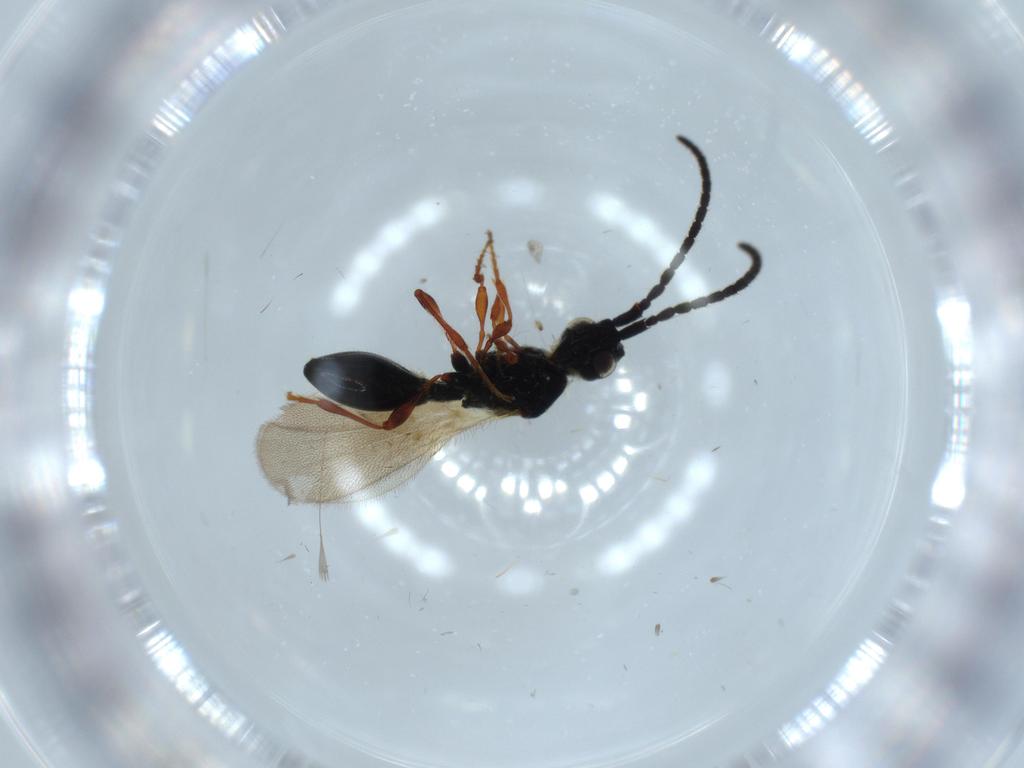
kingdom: Animalia
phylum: Arthropoda
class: Insecta
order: Hymenoptera
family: Diapriidae
